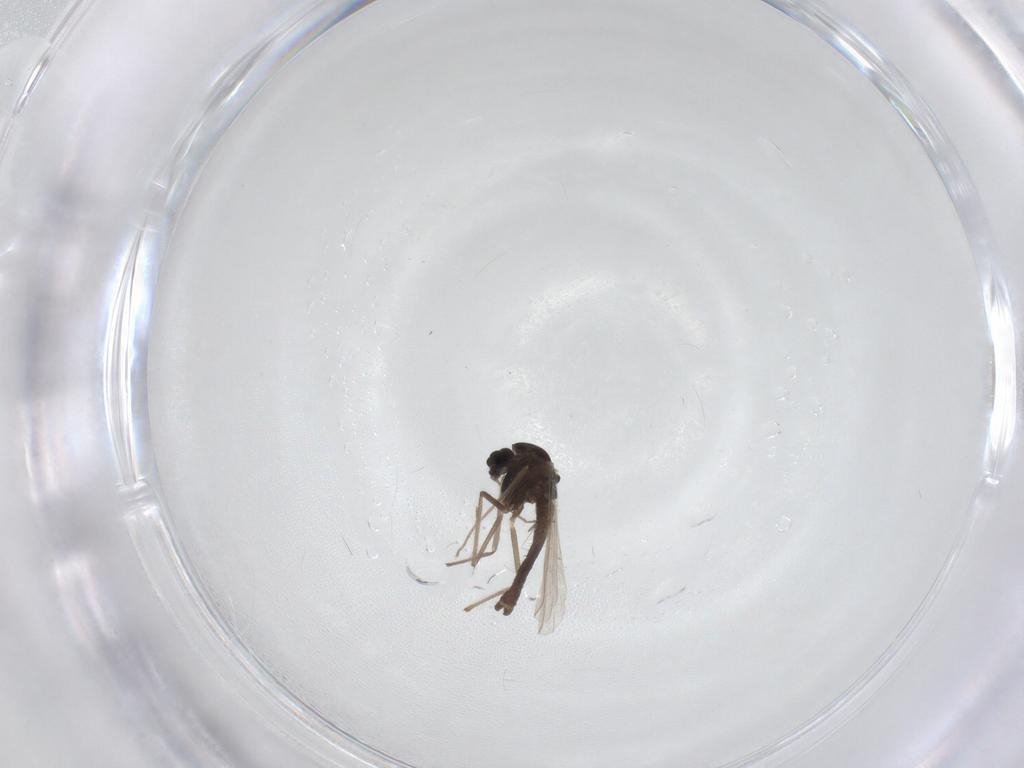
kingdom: Animalia
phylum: Arthropoda
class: Insecta
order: Diptera
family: Chironomidae
